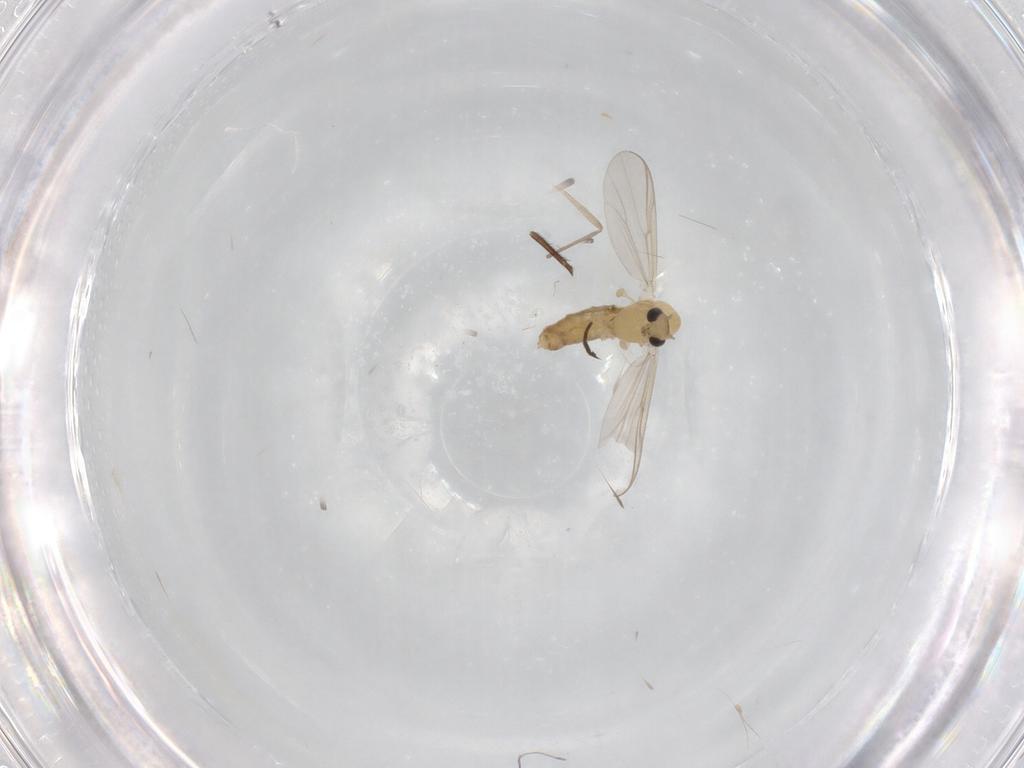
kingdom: Animalia
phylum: Arthropoda
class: Insecta
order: Diptera
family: Chironomidae
